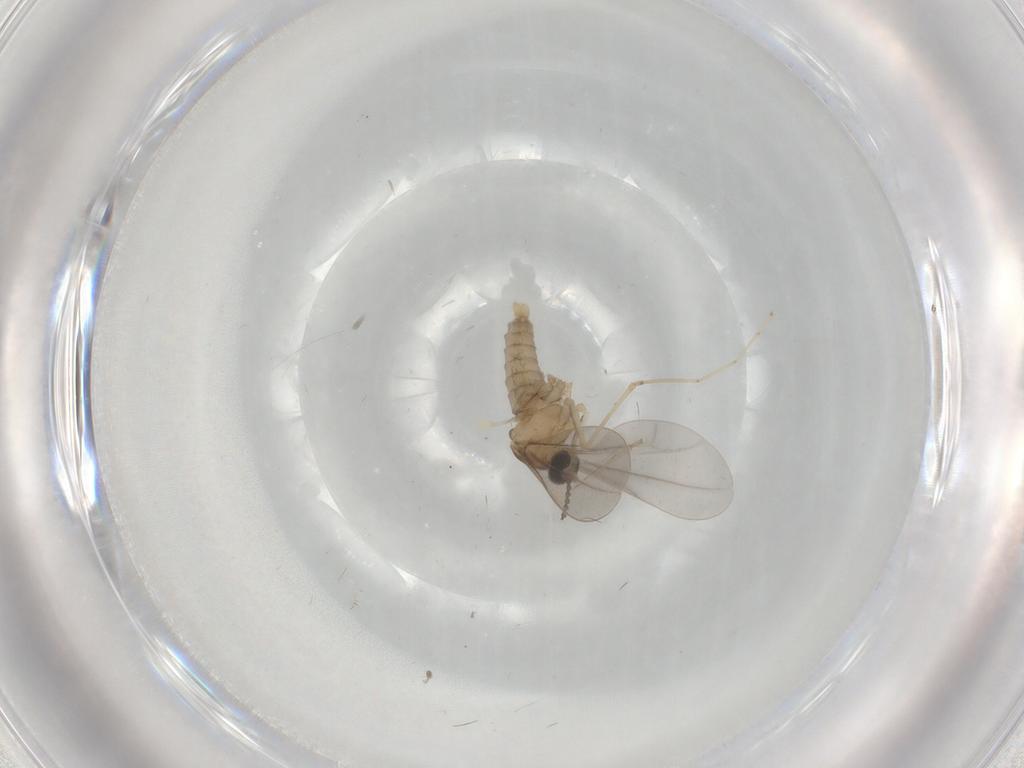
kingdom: Animalia
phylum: Arthropoda
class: Insecta
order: Diptera
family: Cecidomyiidae
